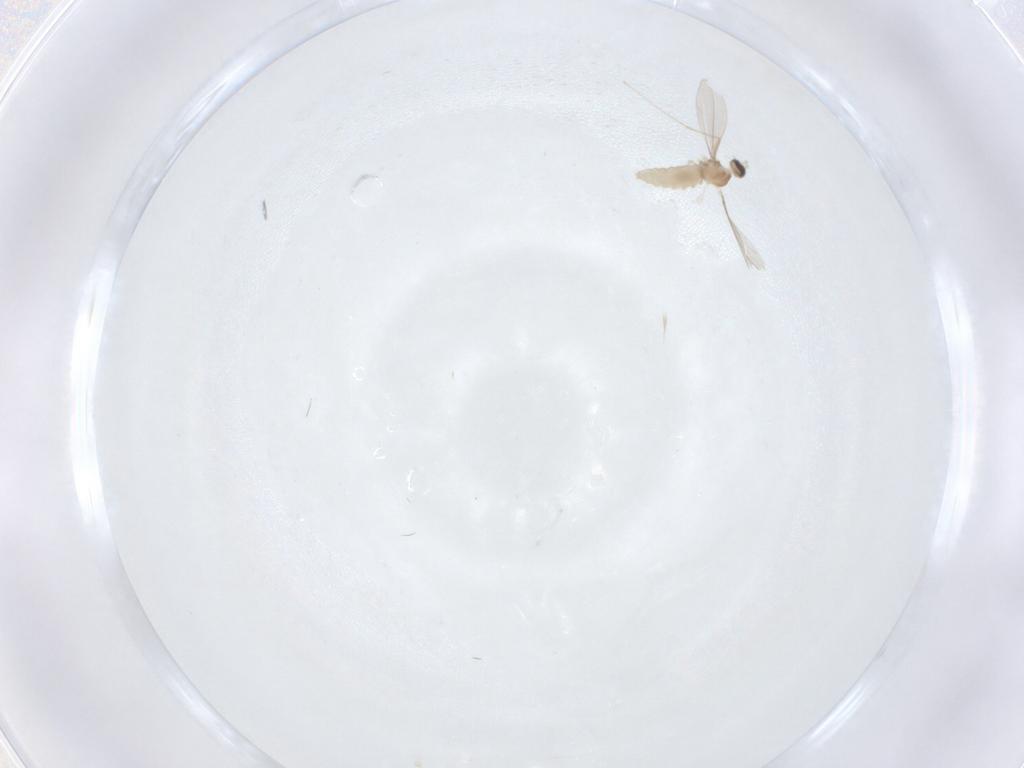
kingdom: Animalia
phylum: Arthropoda
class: Insecta
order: Diptera
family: Cecidomyiidae
